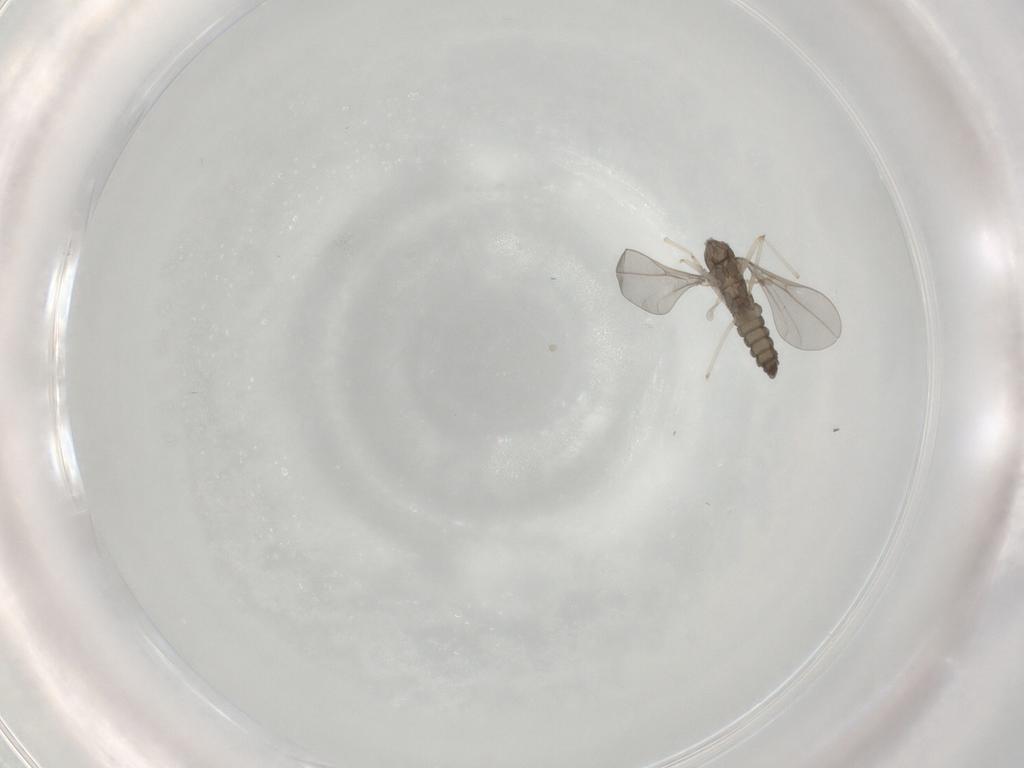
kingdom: Animalia
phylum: Arthropoda
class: Insecta
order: Diptera
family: Cecidomyiidae
